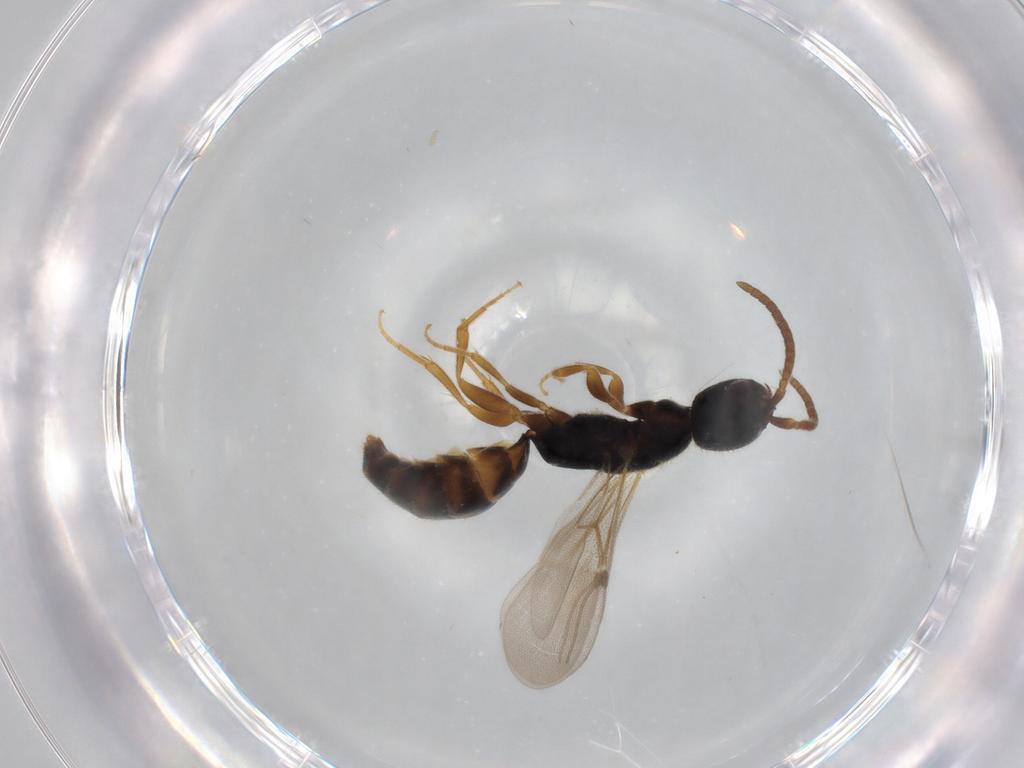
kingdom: Animalia
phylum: Arthropoda
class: Insecta
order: Hymenoptera
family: Bethylidae
